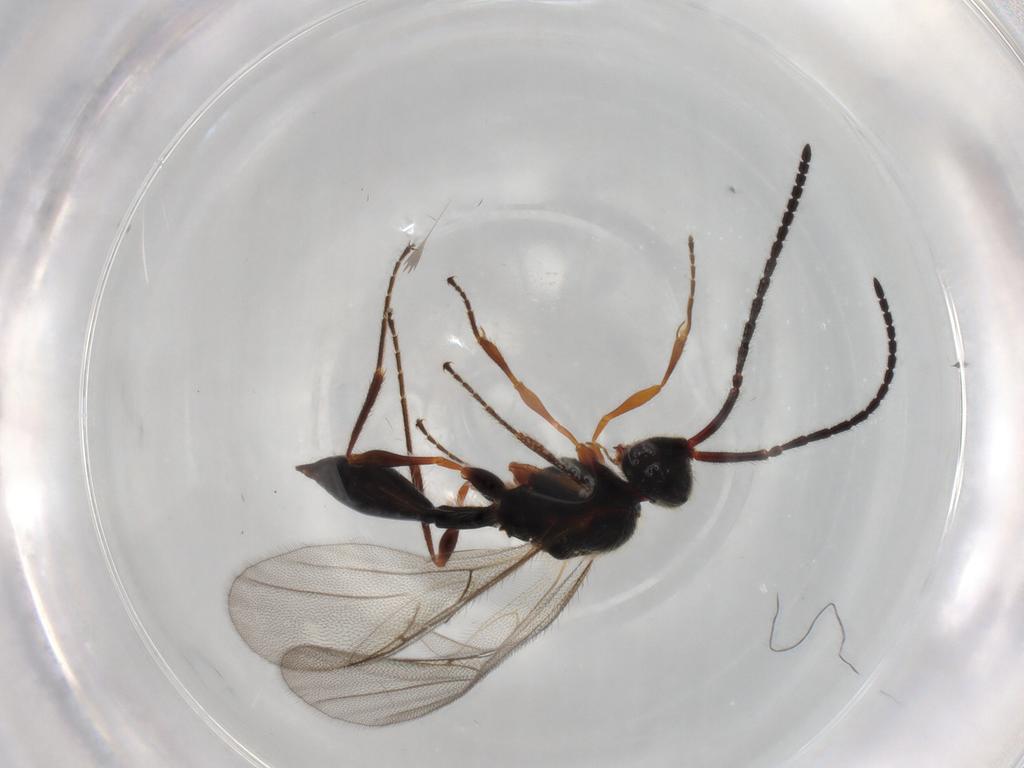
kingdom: Animalia
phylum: Arthropoda
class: Insecta
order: Hymenoptera
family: Diapriidae
